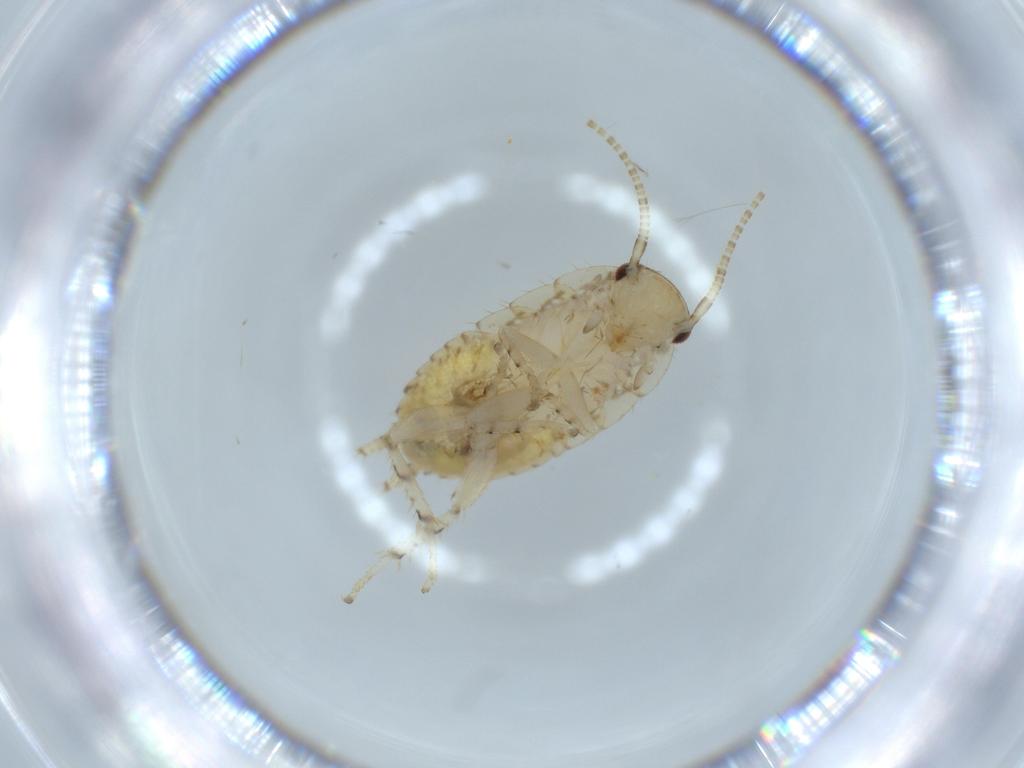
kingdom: Animalia
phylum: Arthropoda
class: Insecta
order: Blattodea
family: Ectobiidae
